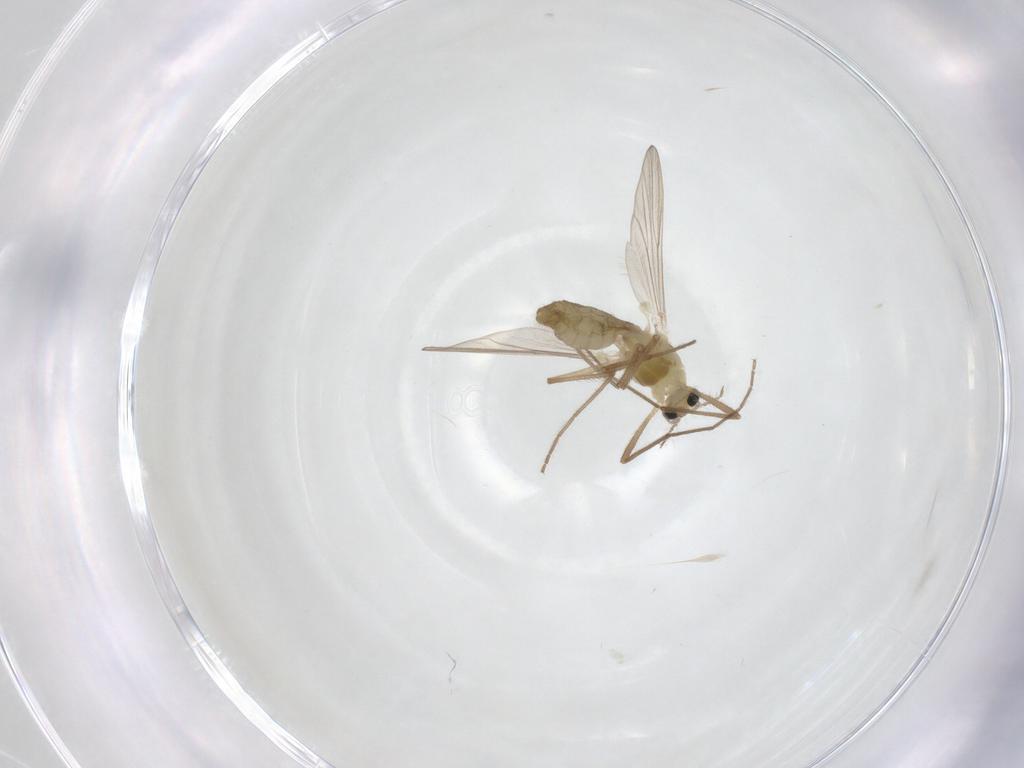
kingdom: Animalia
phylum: Arthropoda
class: Insecta
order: Diptera
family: Chironomidae
